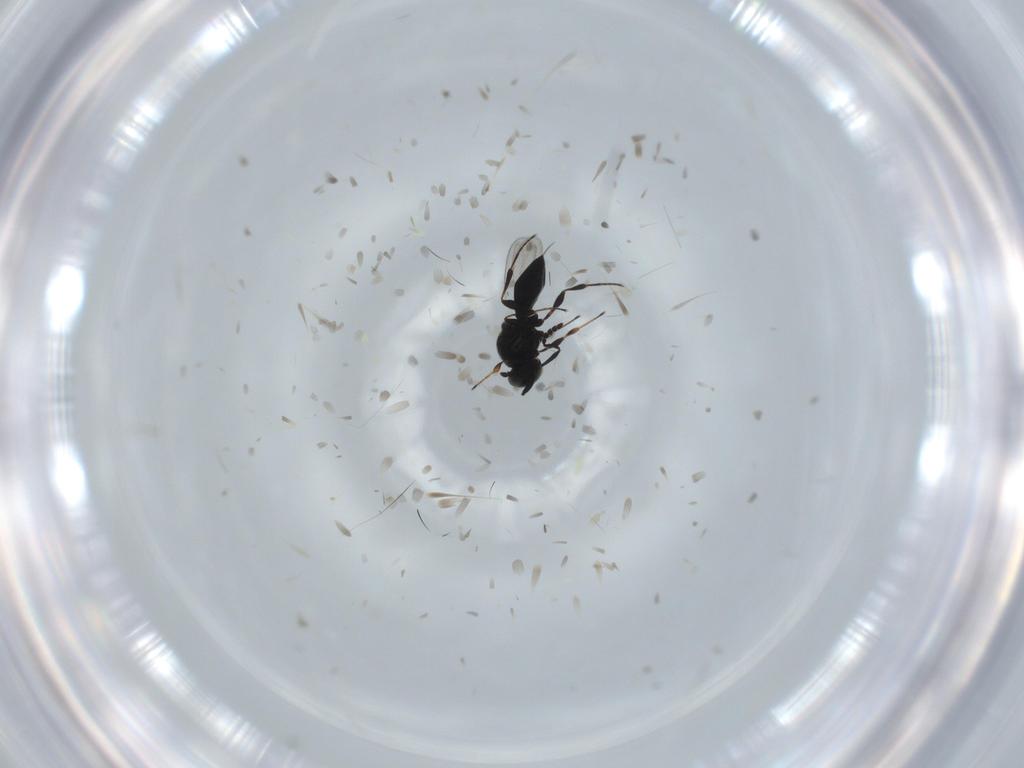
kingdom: Animalia
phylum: Arthropoda
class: Insecta
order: Hymenoptera
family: Platygastridae
